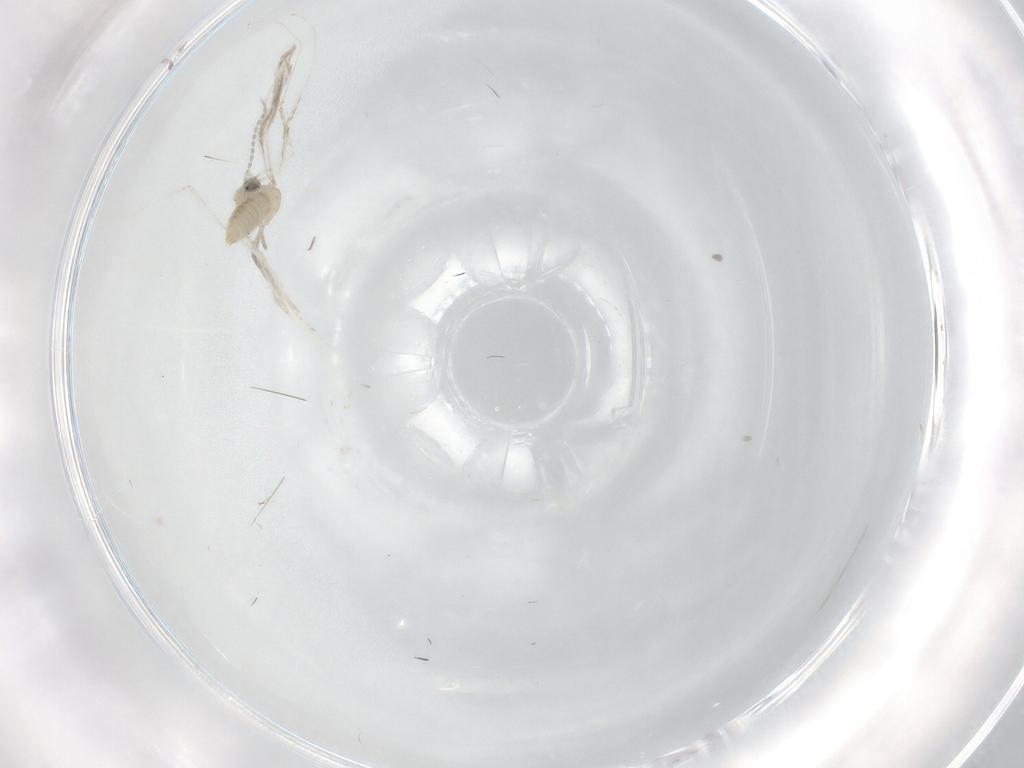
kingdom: Animalia
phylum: Arthropoda
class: Insecta
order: Diptera
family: Cecidomyiidae
